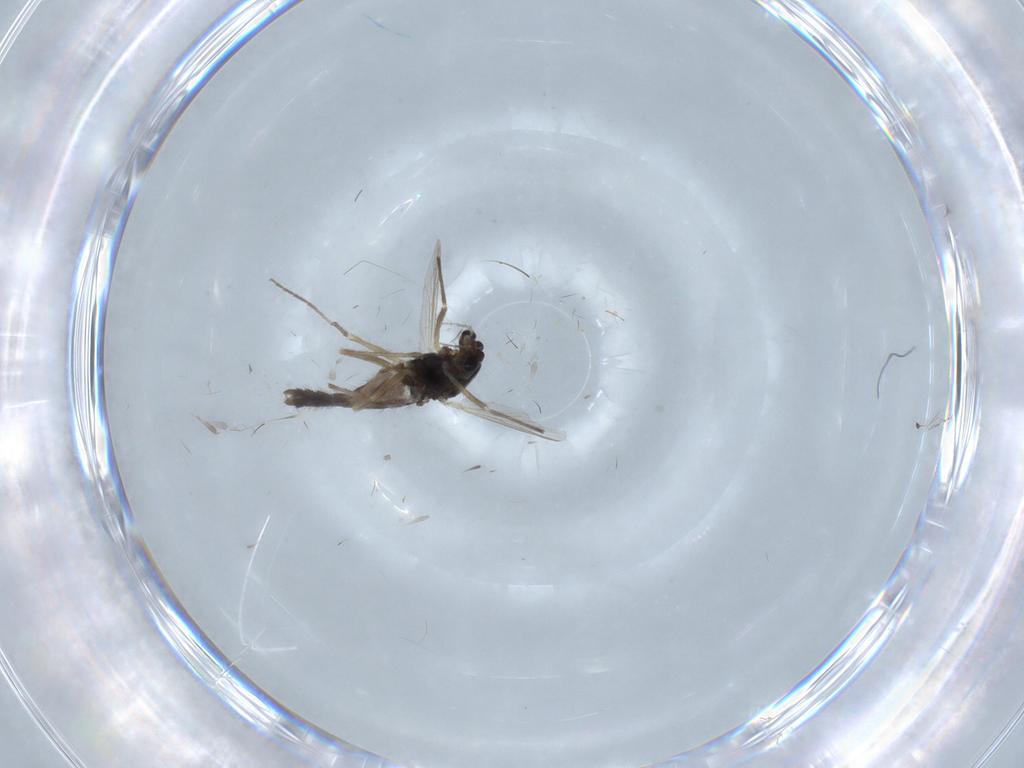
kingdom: Animalia
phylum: Arthropoda
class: Insecta
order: Diptera
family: Chironomidae
